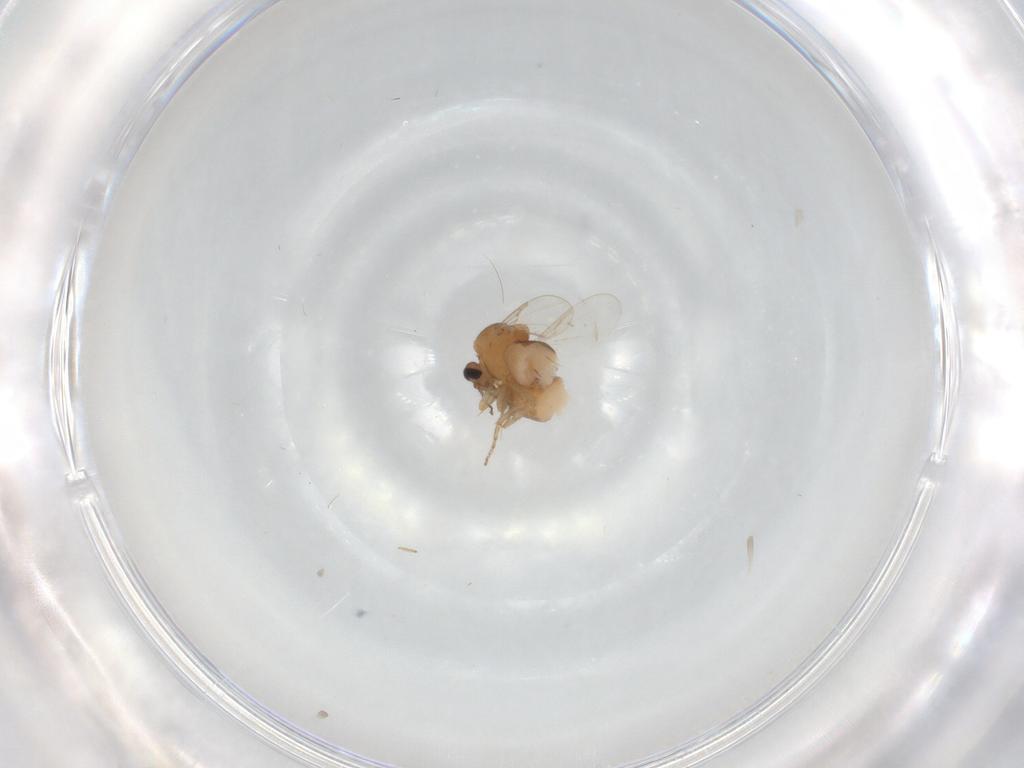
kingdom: Animalia
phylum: Arthropoda
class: Insecta
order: Diptera
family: Ceratopogonidae
